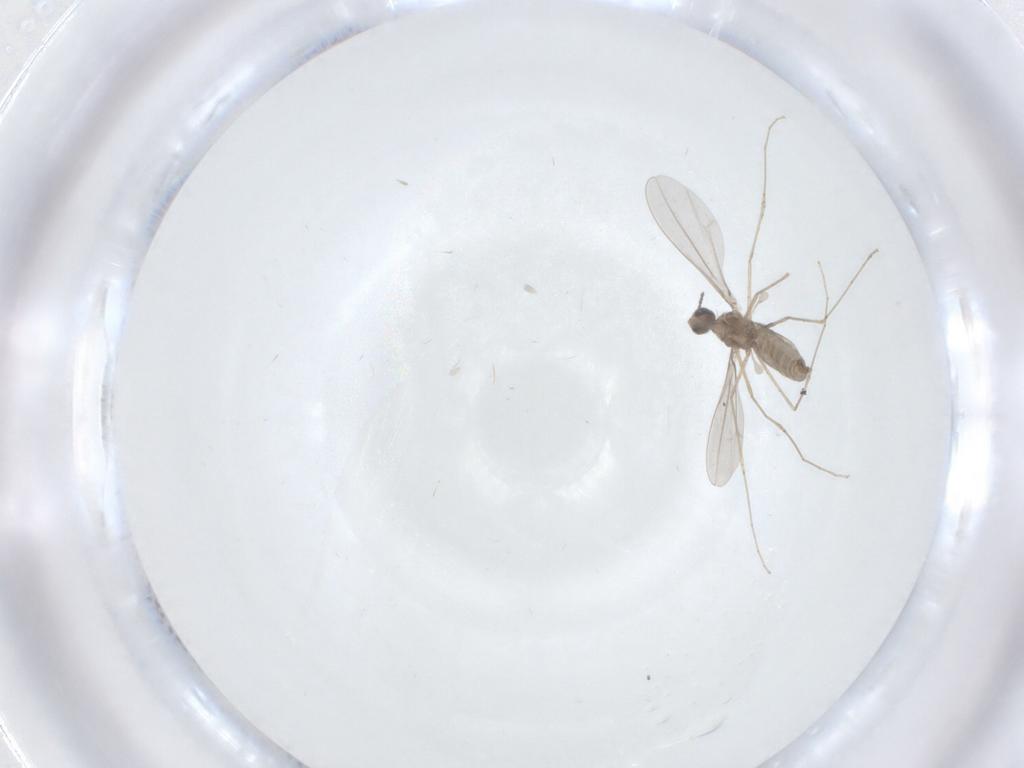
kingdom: Animalia
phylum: Arthropoda
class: Insecta
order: Diptera
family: Cecidomyiidae
